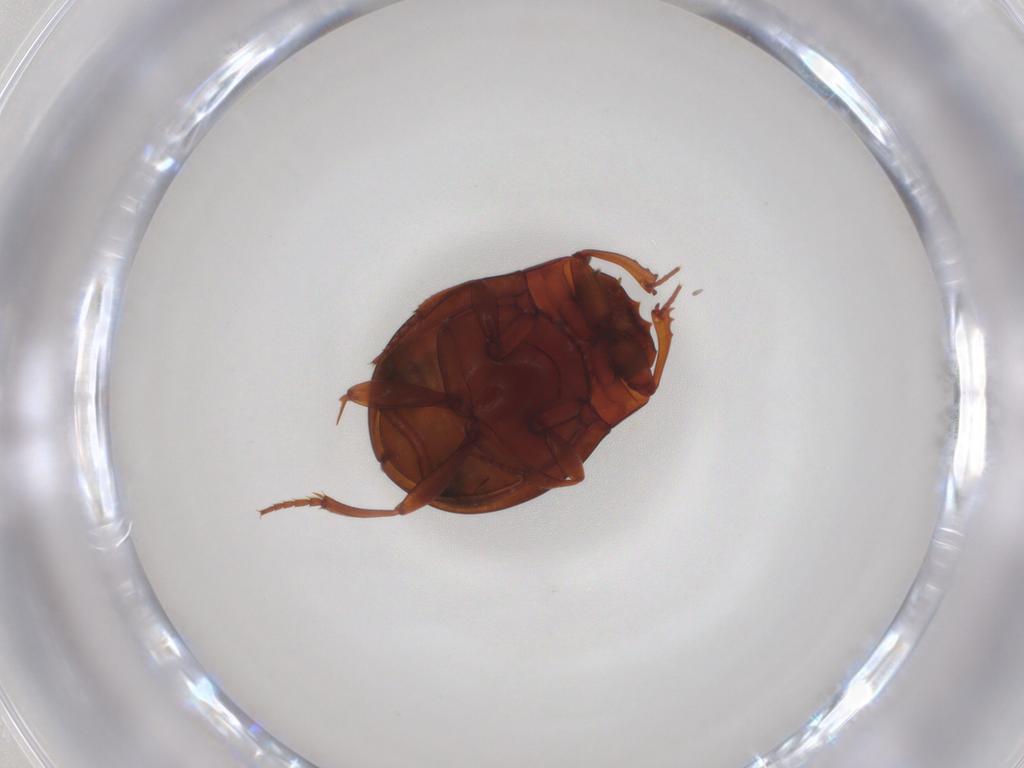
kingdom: Animalia
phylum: Arthropoda
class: Insecta
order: Coleoptera
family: Scarabaeidae
